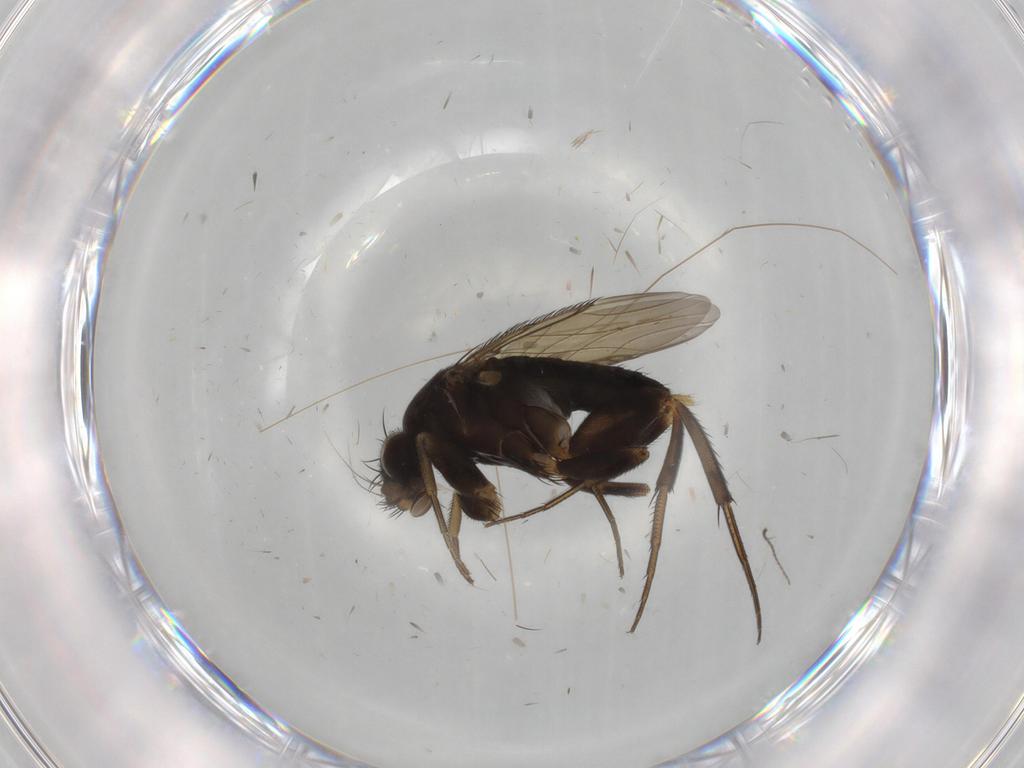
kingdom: Animalia
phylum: Arthropoda
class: Insecta
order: Diptera
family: Phoridae
